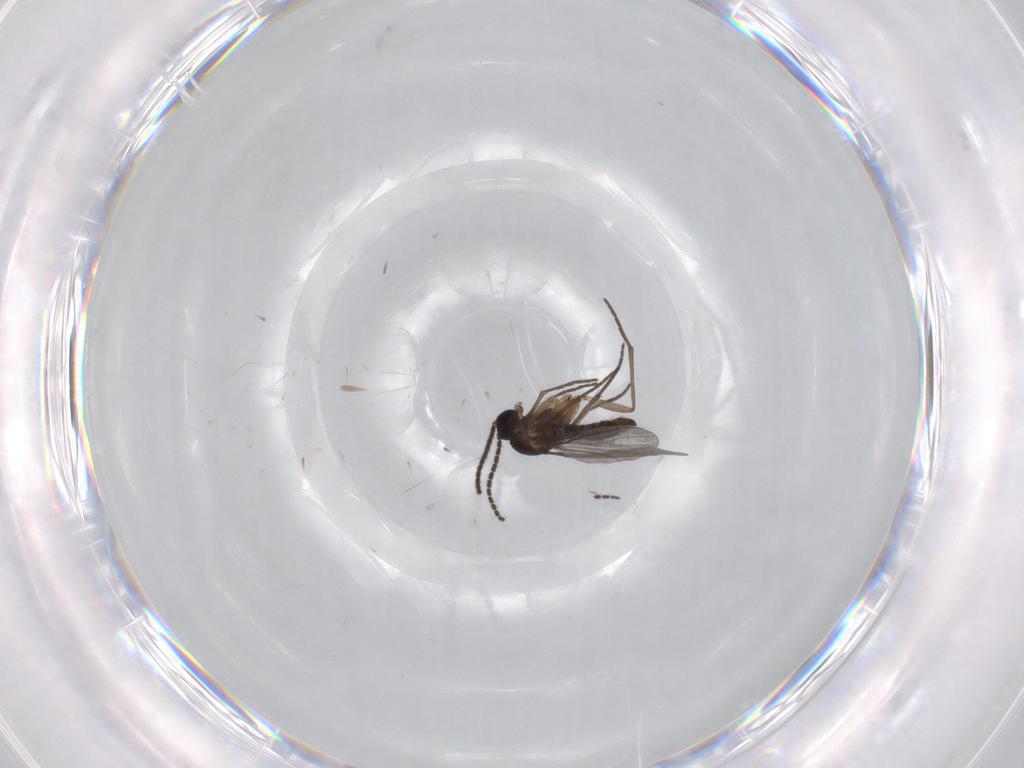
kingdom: Animalia
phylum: Arthropoda
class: Insecta
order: Diptera
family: Sciaridae
